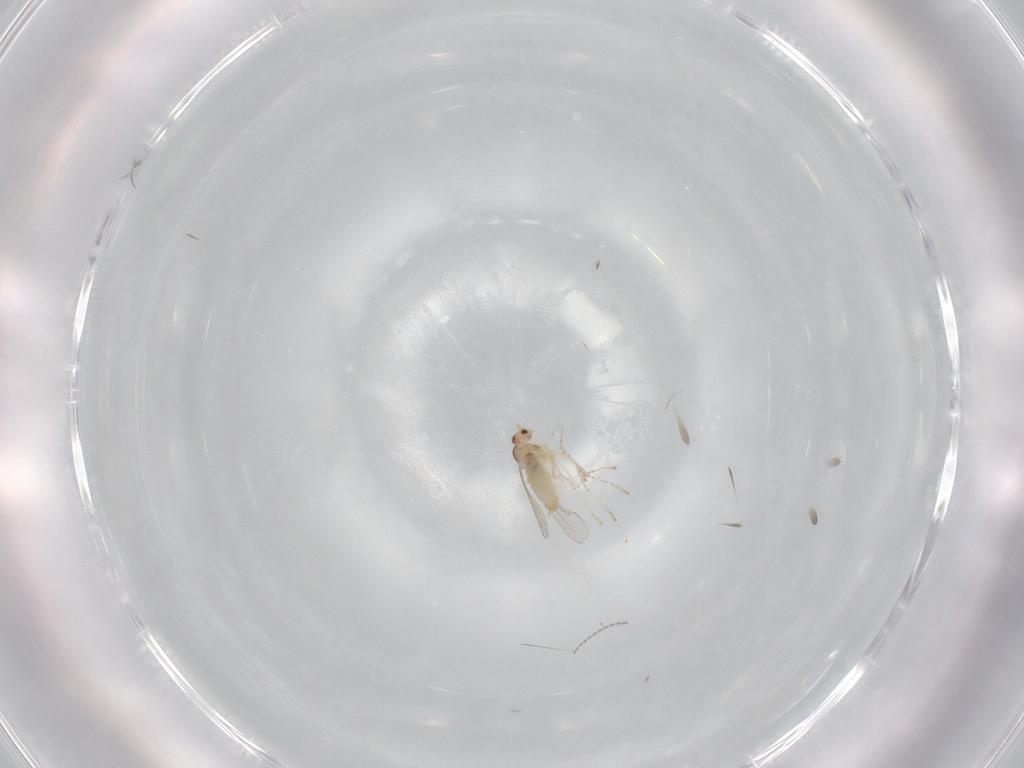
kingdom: Animalia
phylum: Arthropoda
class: Insecta
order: Diptera
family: Cecidomyiidae
